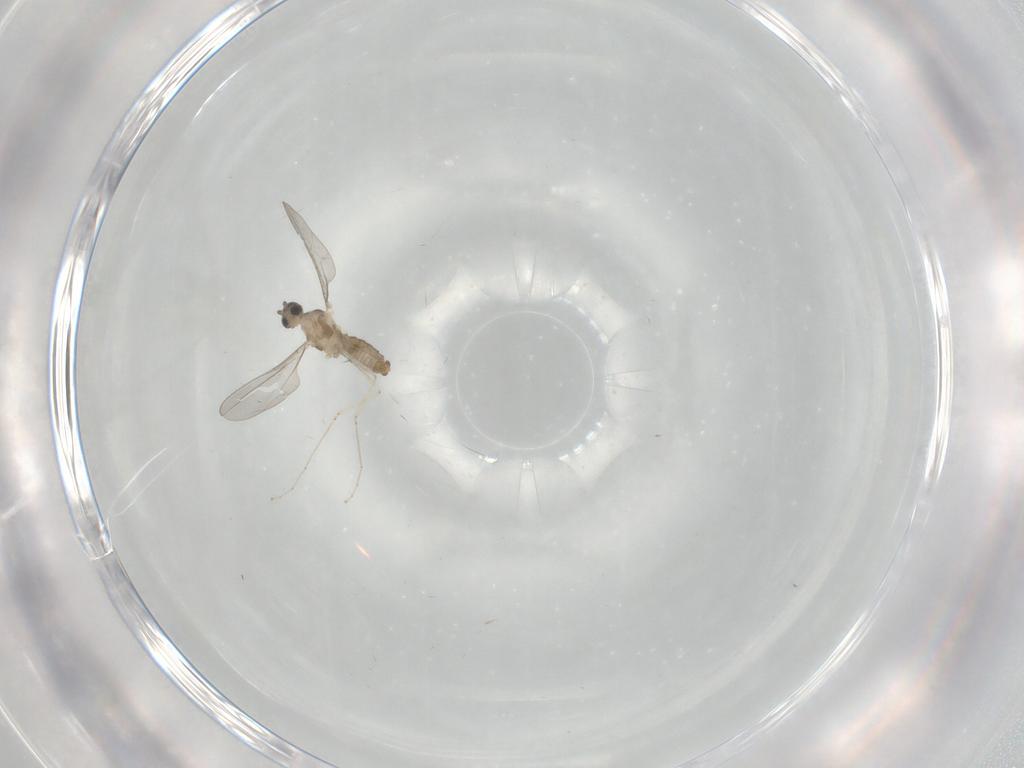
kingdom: Animalia
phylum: Arthropoda
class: Insecta
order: Diptera
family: Cecidomyiidae
